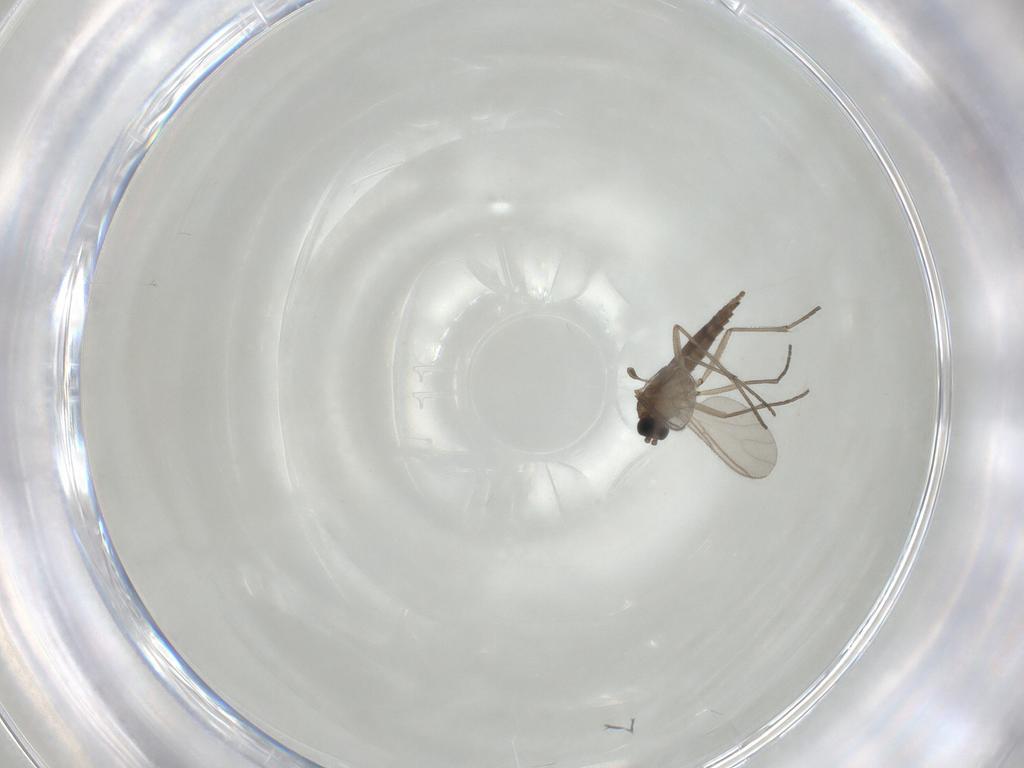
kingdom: Animalia
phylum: Arthropoda
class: Insecta
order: Diptera
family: Sciaridae
